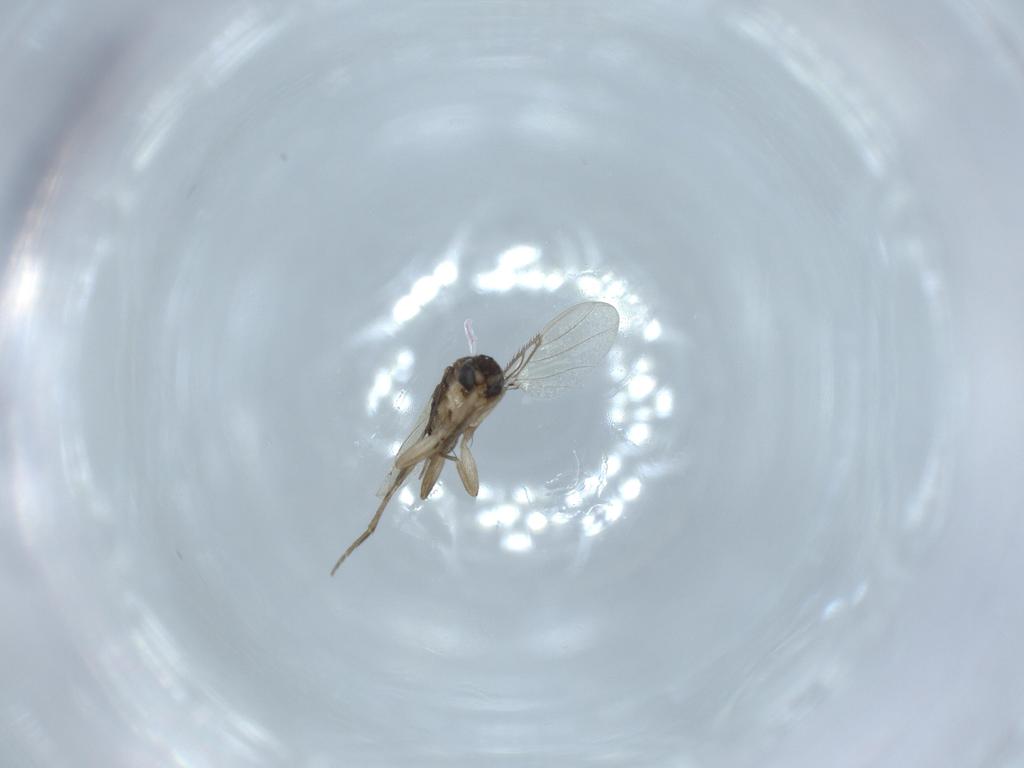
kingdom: Animalia
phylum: Arthropoda
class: Insecta
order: Diptera
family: Phoridae
